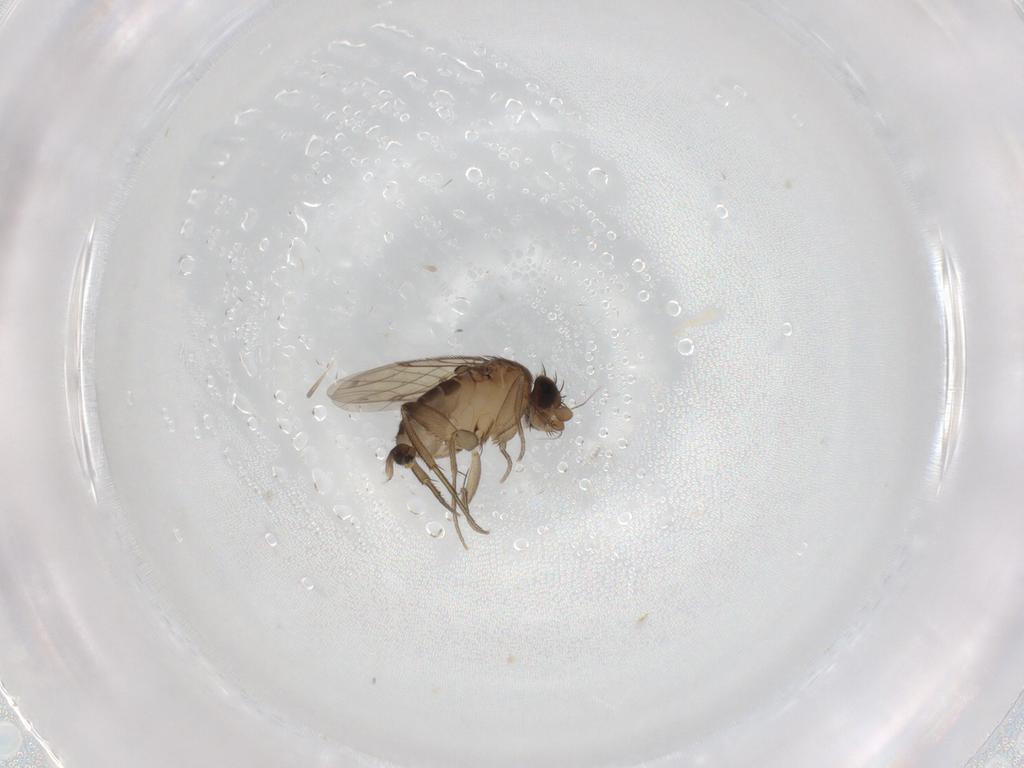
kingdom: Animalia
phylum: Arthropoda
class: Insecta
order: Diptera
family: Phoridae
